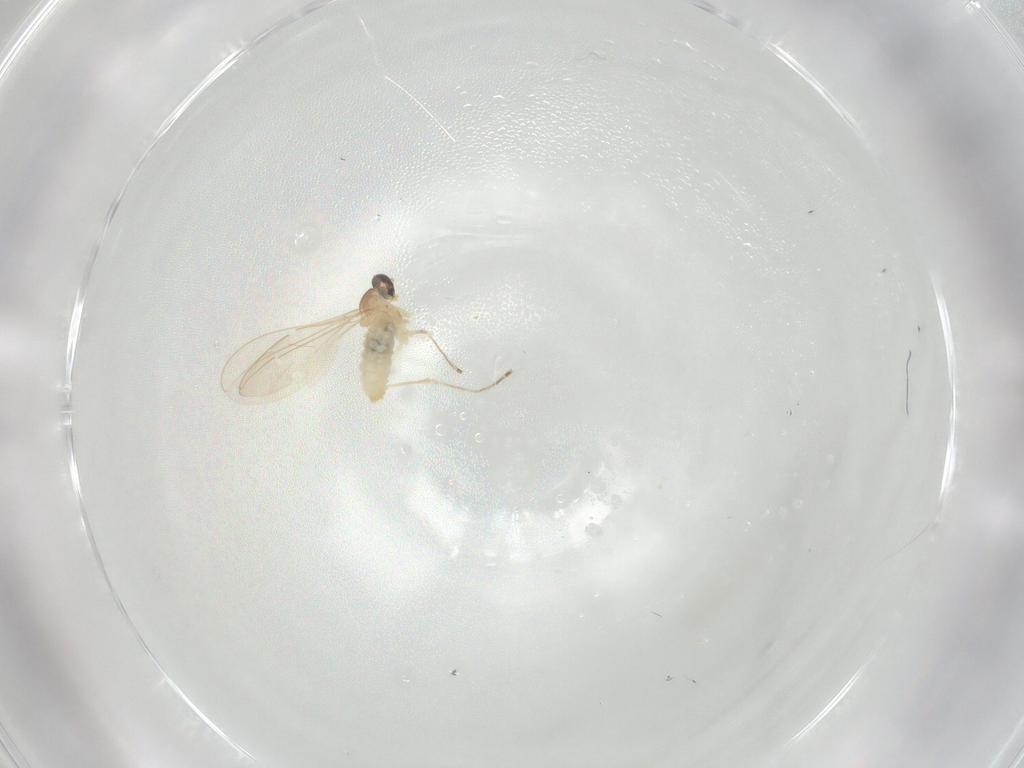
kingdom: Animalia
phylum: Arthropoda
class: Insecta
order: Diptera
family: Cecidomyiidae
